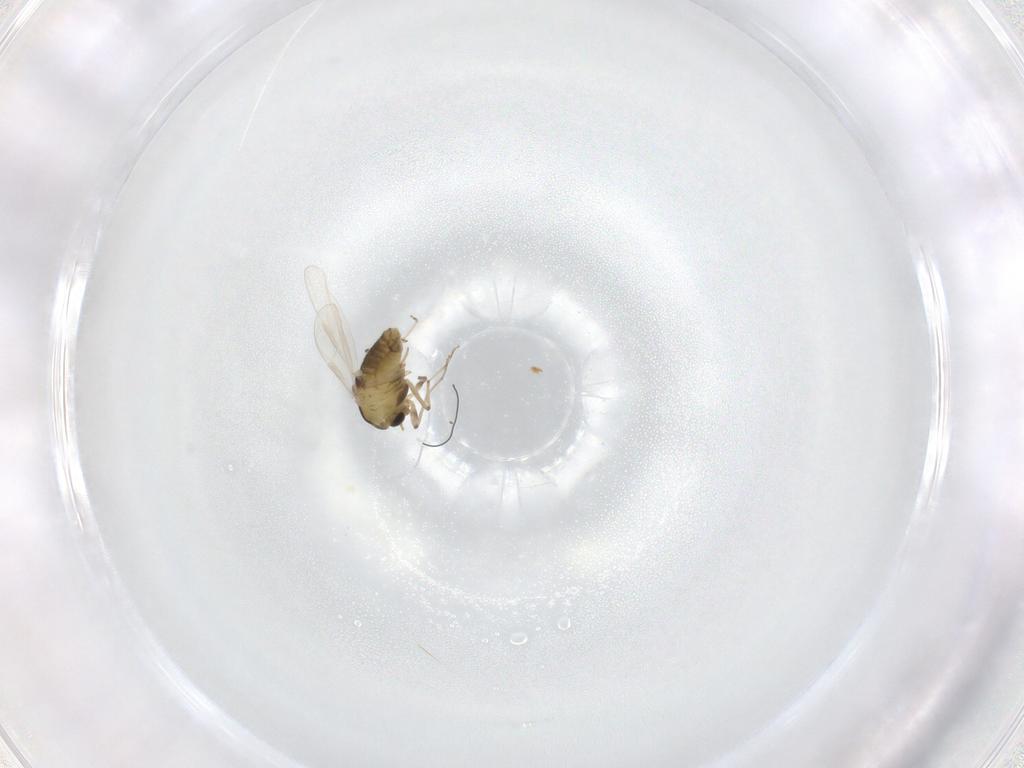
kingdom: Animalia
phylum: Arthropoda
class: Insecta
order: Diptera
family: Chironomidae
